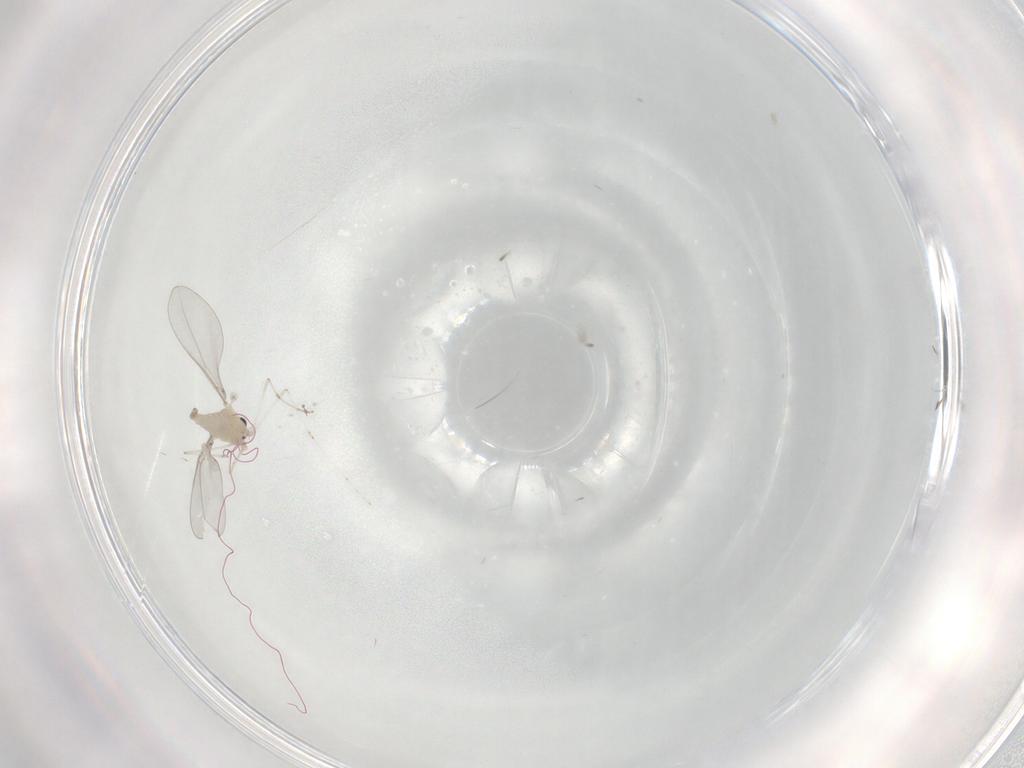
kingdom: Animalia
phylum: Arthropoda
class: Insecta
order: Diptera
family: Cecidomyiidae
